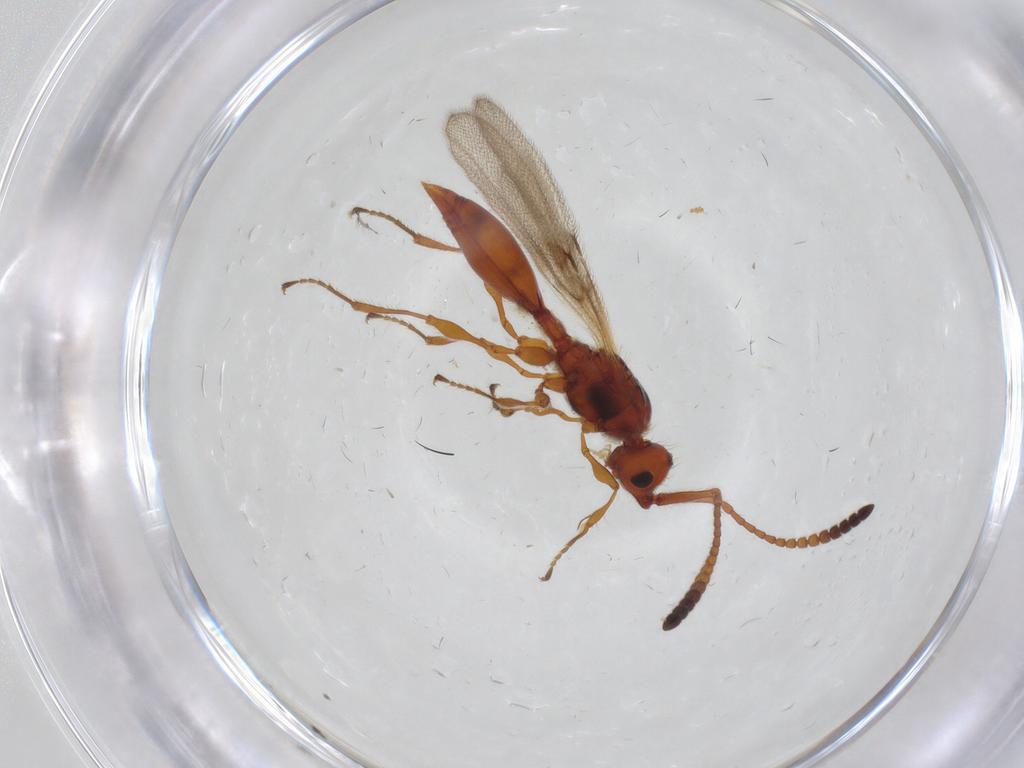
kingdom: Animalia
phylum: Arthropoda
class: Insecta
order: Hymenoptera
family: Diapriidae
